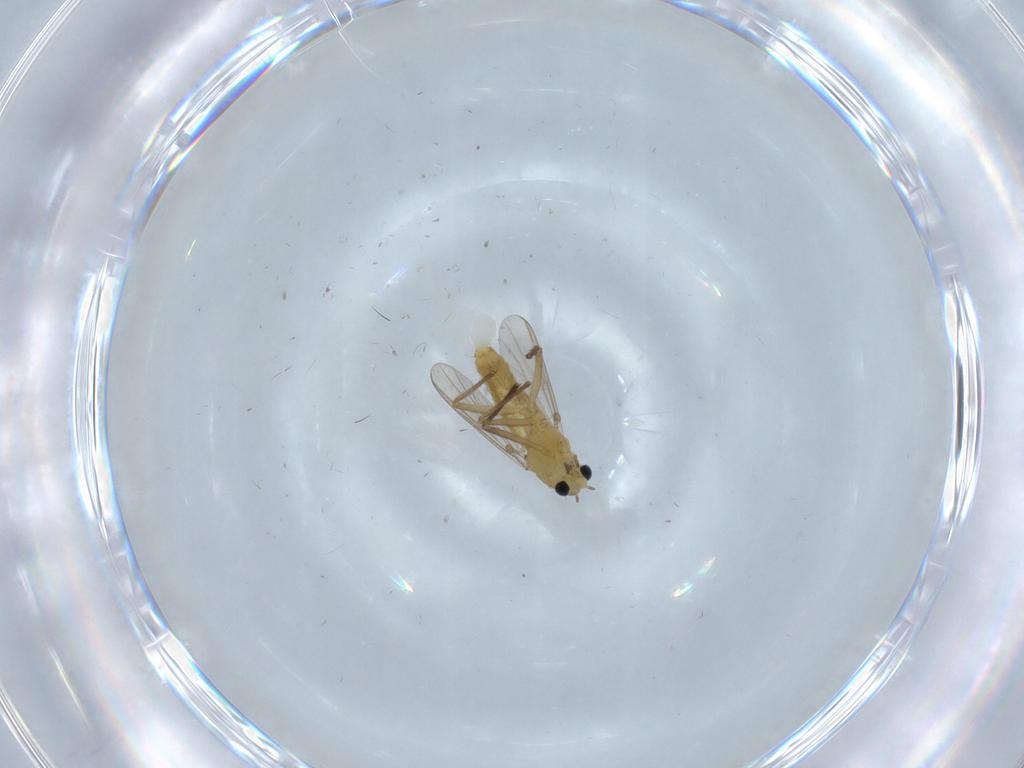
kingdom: Animalia
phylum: Arthropoda
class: Insecta
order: Diptera
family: Chironomidae
